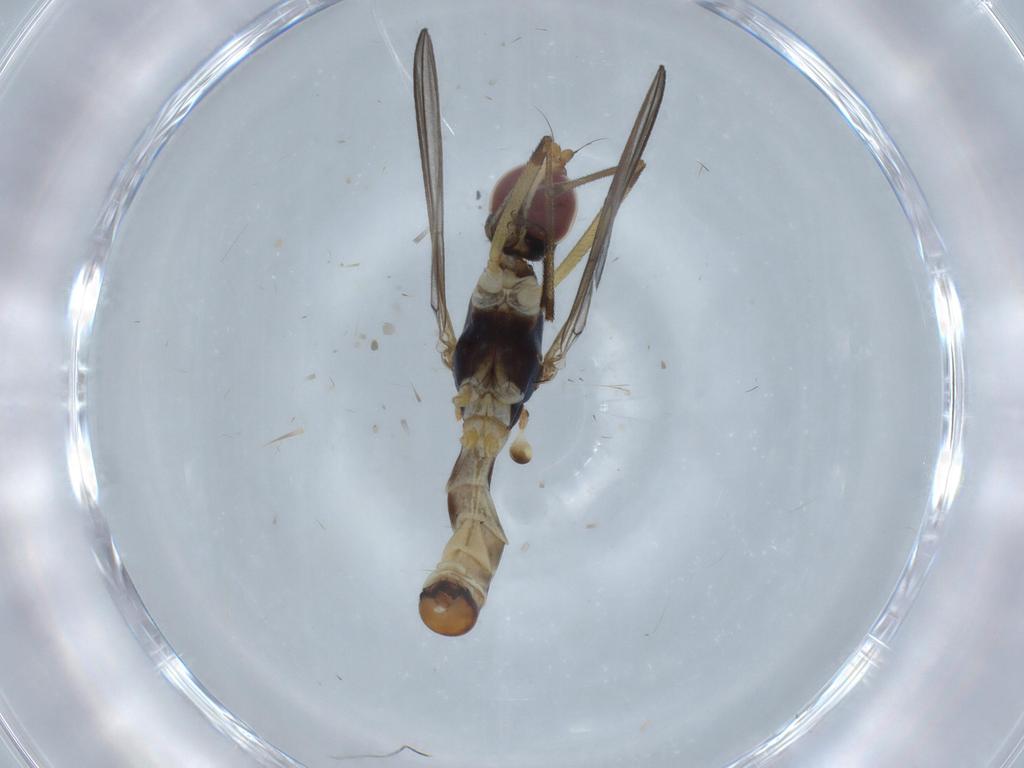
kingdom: Animalia
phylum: Arthropoda
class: Insecta
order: Diptera
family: Micropezidae
